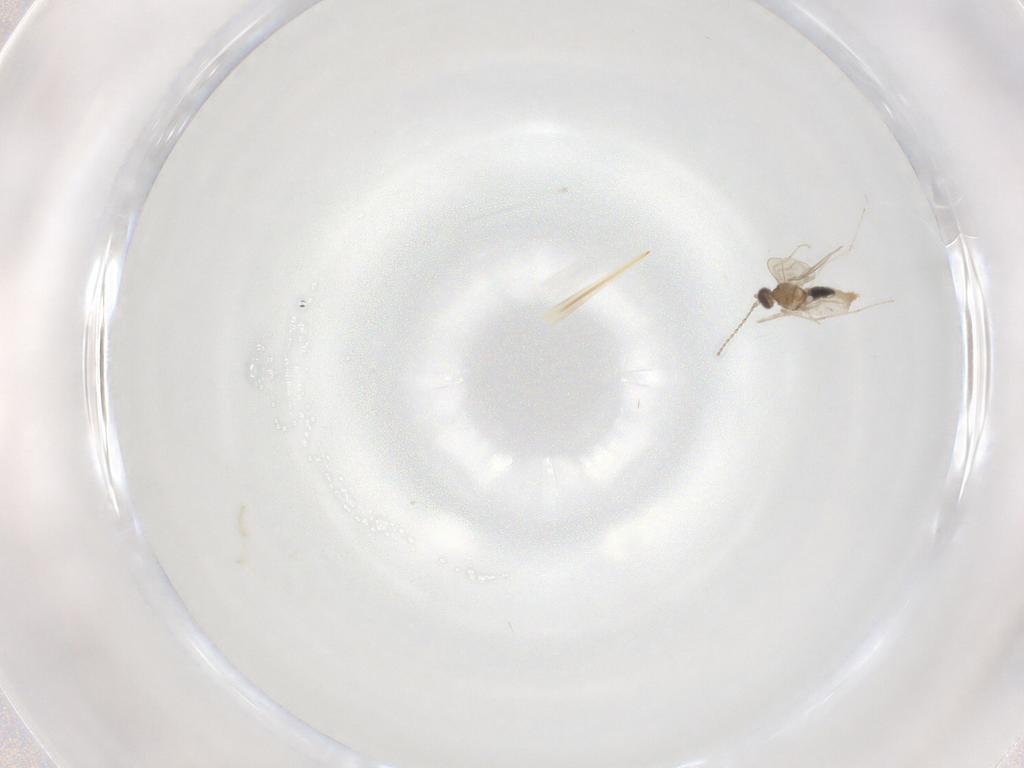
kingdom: Animalia
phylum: Arthropoda
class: Insecta
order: Diptera
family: Cecidomyiidae
